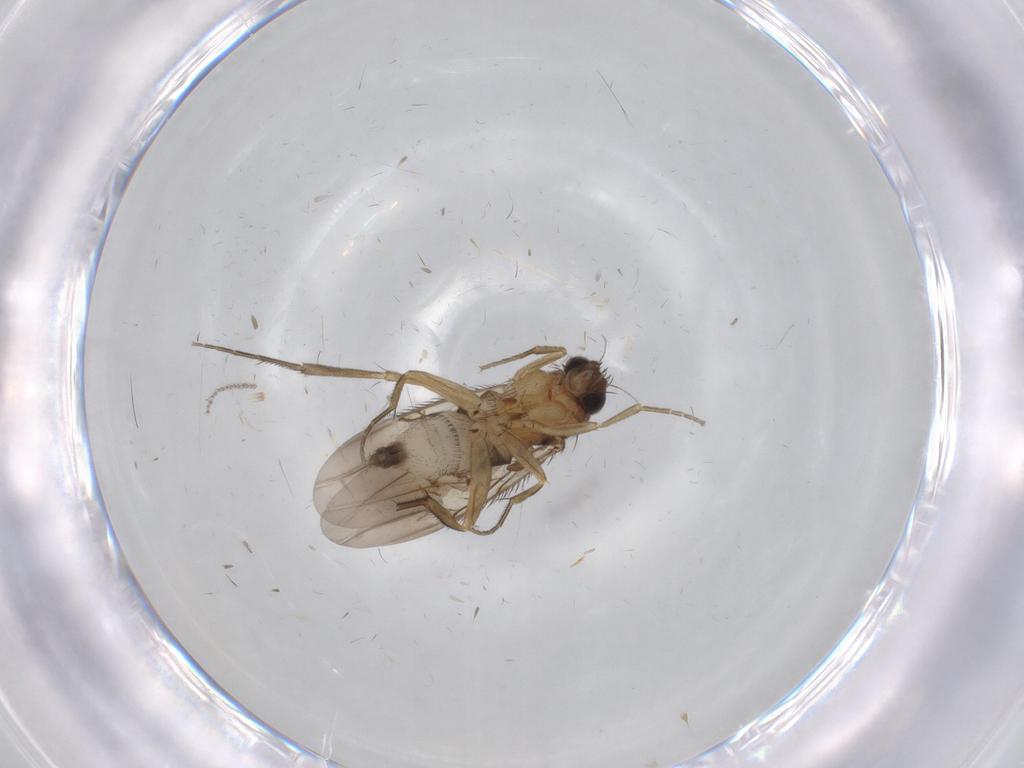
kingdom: Animalia
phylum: Arthropoda
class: Insecta
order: Diptera
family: Phoridae
